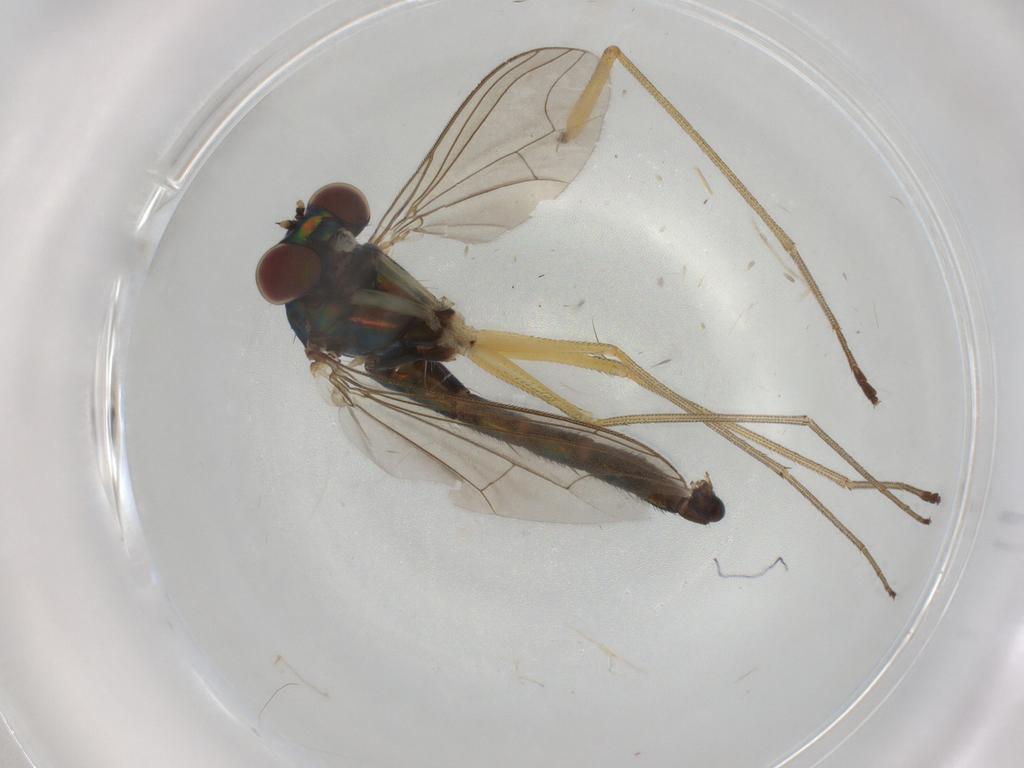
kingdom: Animalia
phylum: Arthropoda
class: Insecta
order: Diptera
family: Dolichopodidae
